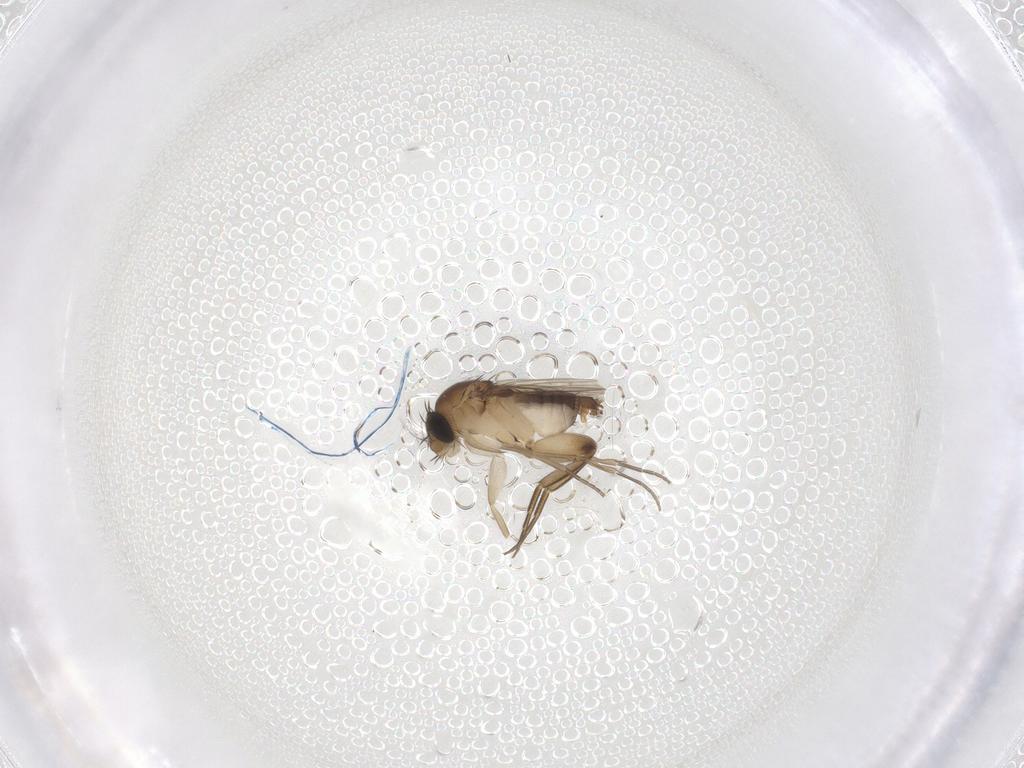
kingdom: Animalia
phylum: Arthropoda
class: Insecta
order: Diptera
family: Phoridae
